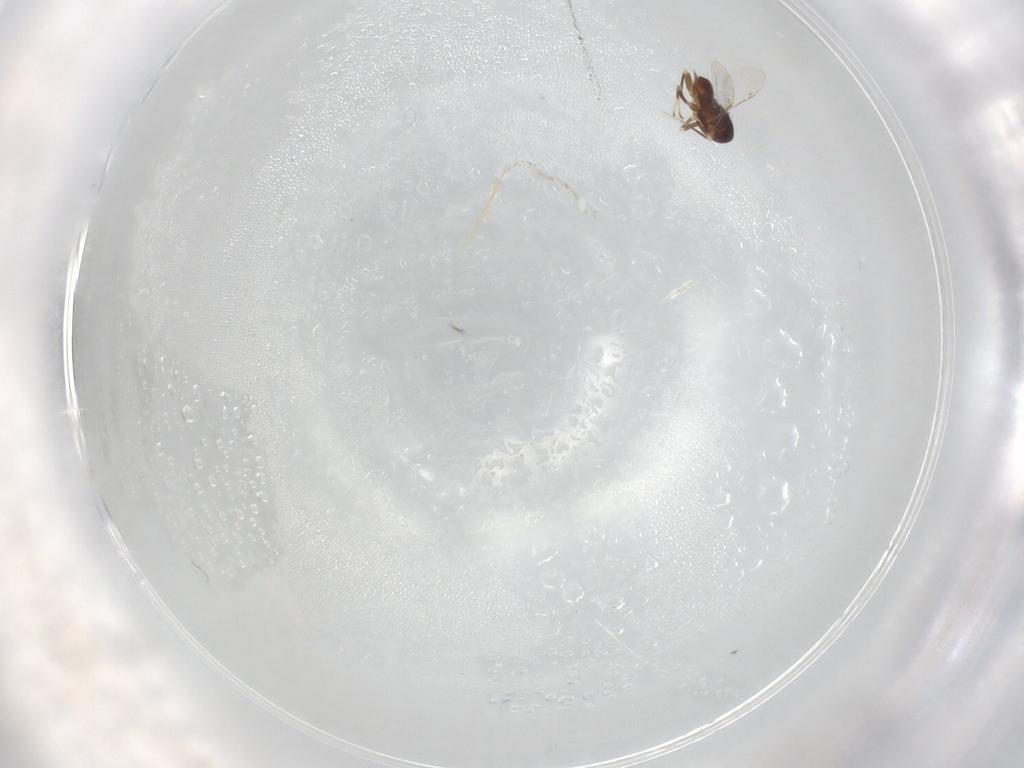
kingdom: Animalia
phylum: Arthropoda
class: Insecta
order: Hymenoptera
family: Encyrtidae
